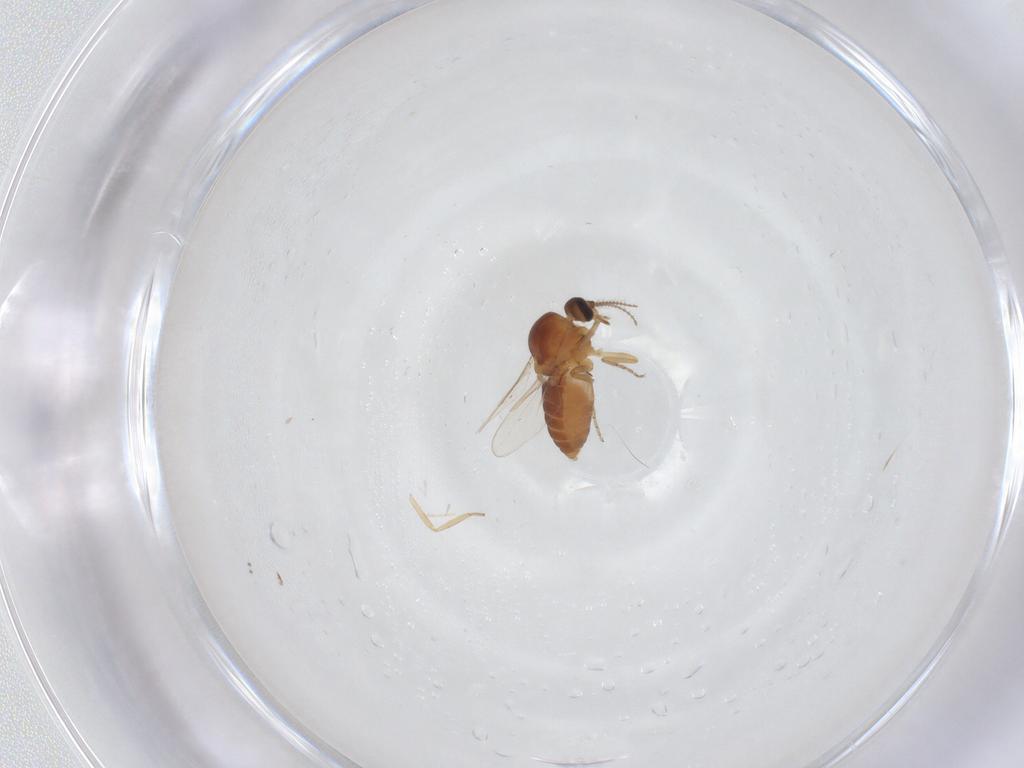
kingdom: Animalia
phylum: Arthropoda
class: Insecta
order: Diptera
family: Ceratopogonidae
